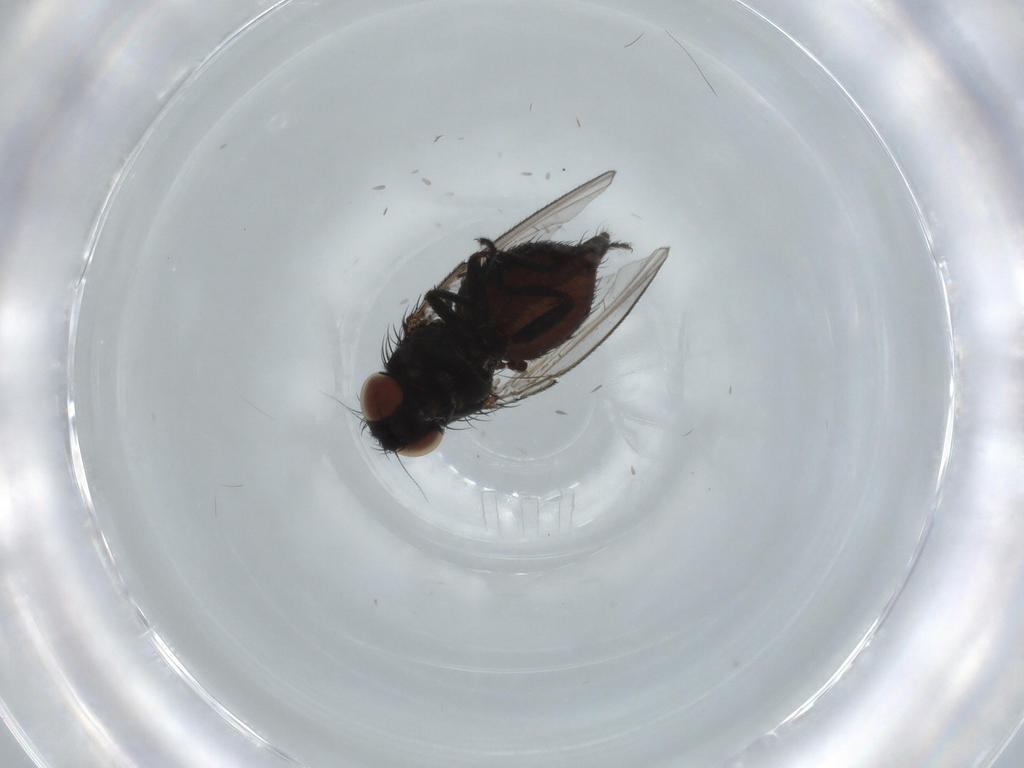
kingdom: Animalia
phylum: Arthropoda
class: Insecta
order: Diptera
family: Milichiidae
